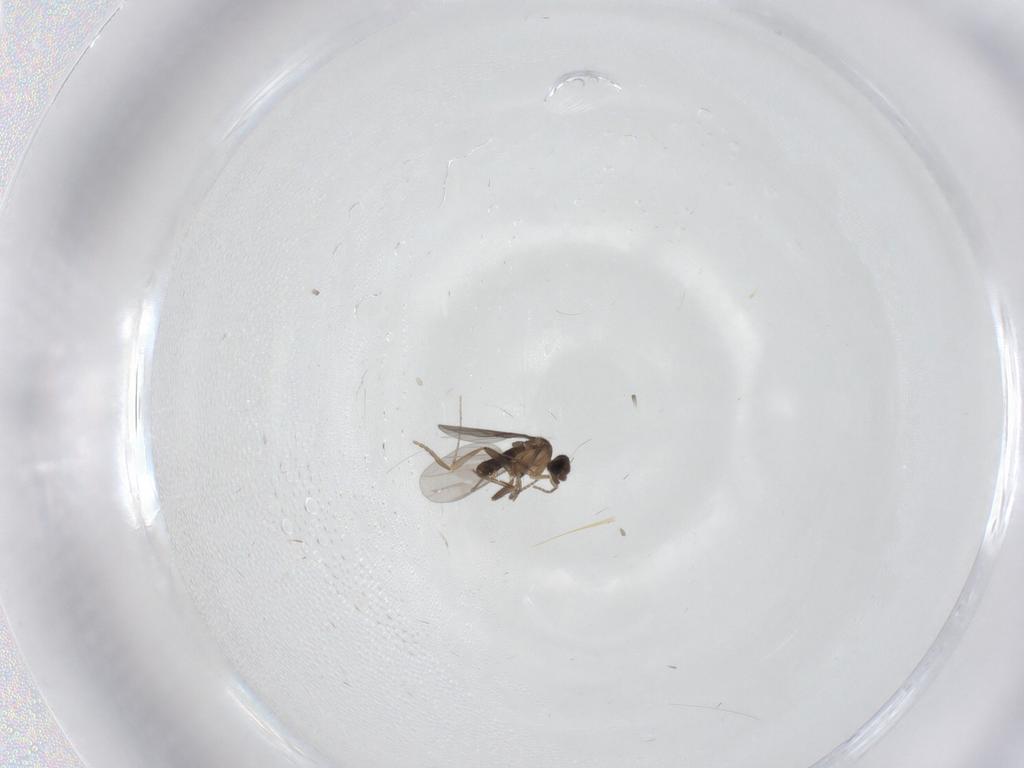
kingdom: Animalia
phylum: Arthropoda
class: Insecta
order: Diptera
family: Cecidomyiidae
